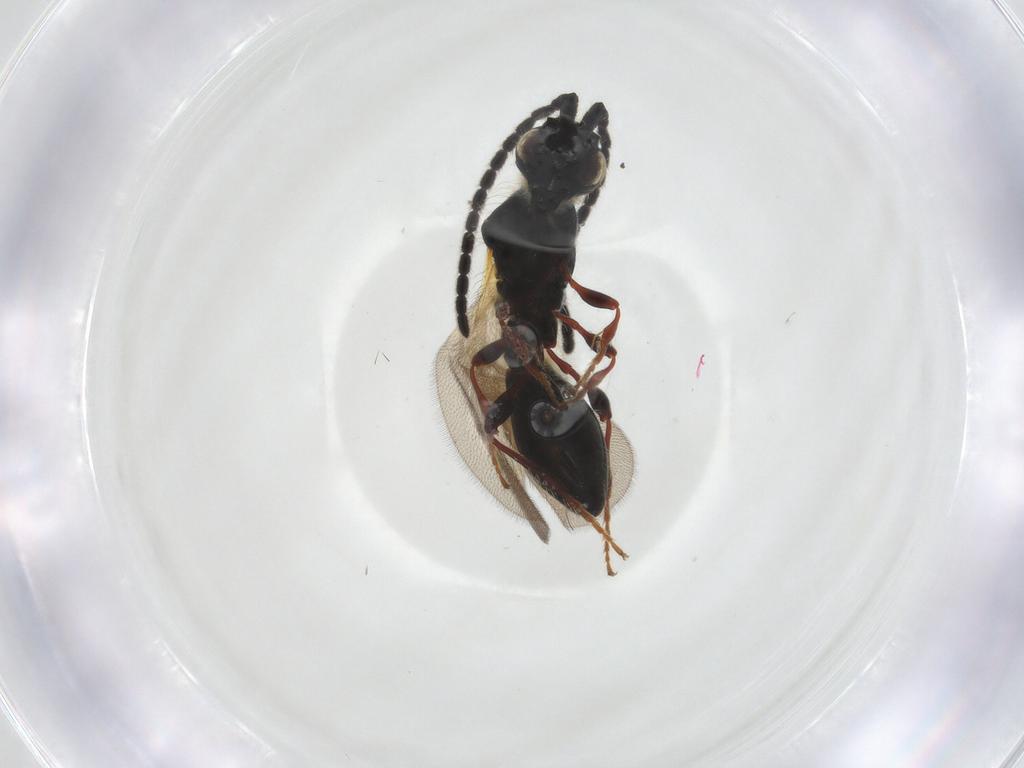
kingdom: Animalia
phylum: Arthropoda
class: Insecta
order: Hymenoptera
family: Diapriidae
